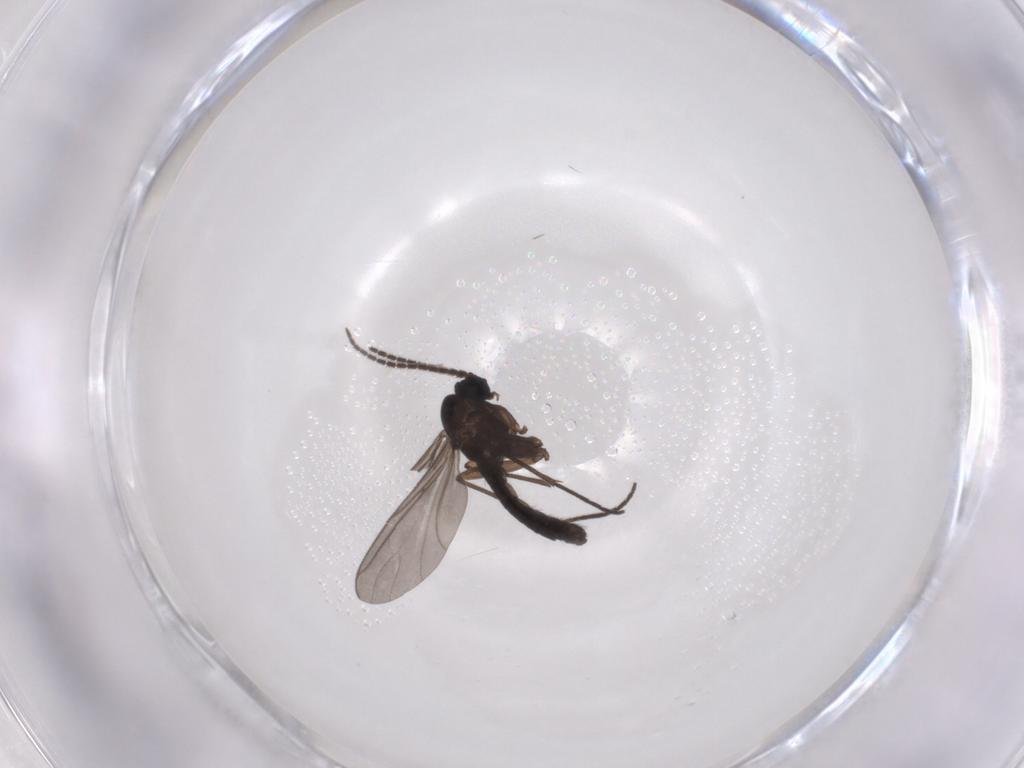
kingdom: Animalia
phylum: Arthropoda
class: Insecta
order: Diptera
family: Sciaridae
